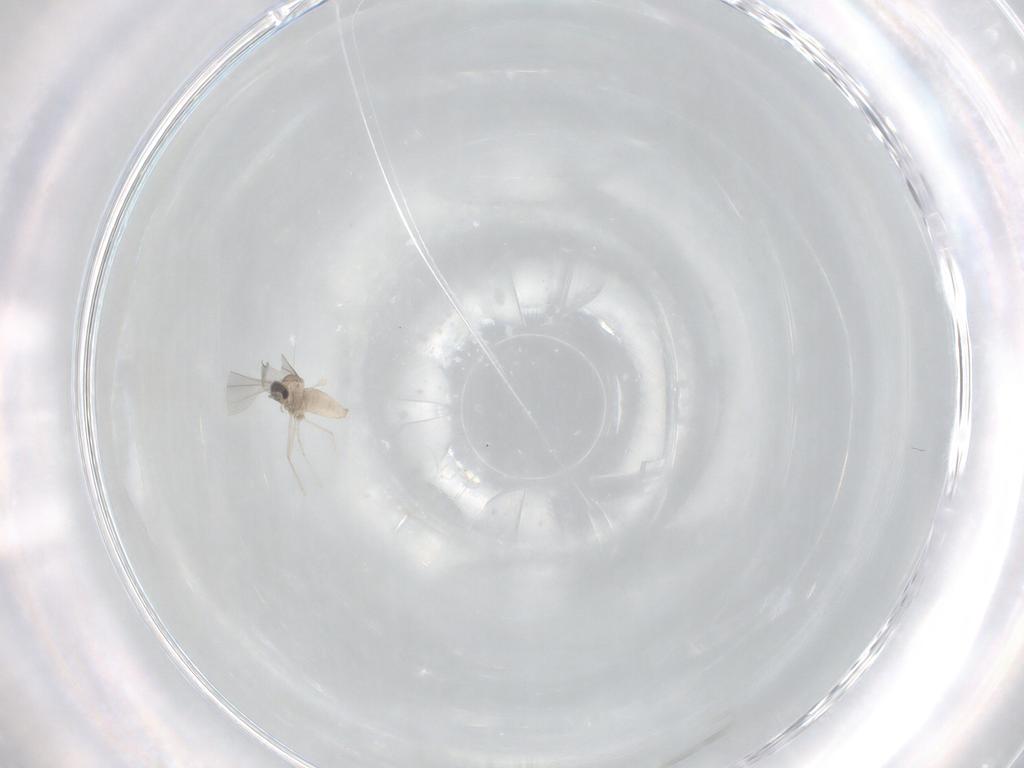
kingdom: Animalia
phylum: Arthropoda
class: Insecta
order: Diptera
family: Cecidomyiidae
